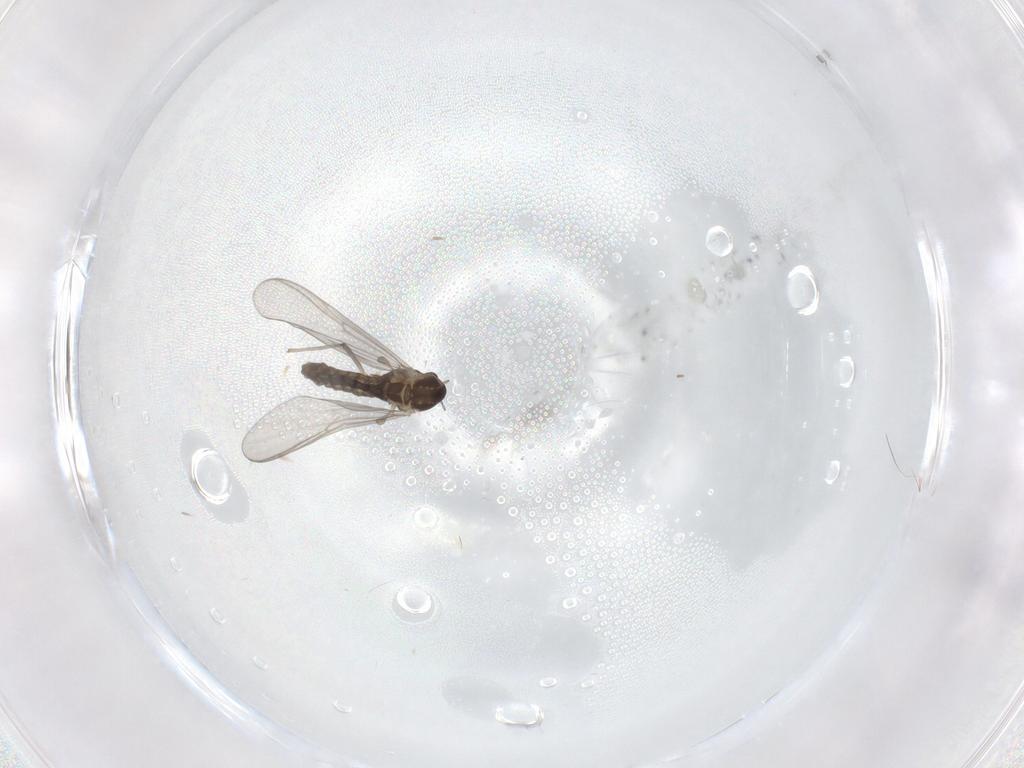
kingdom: Animalia
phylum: Arthropoda
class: Insecta
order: Diptera
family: Chironomidae
